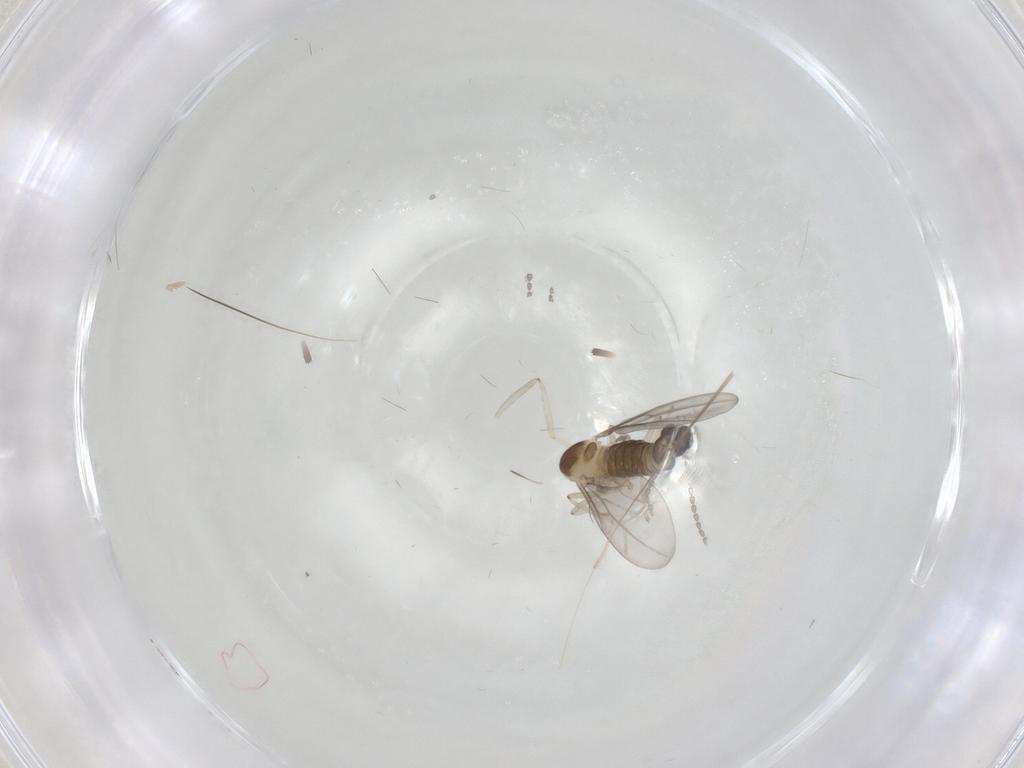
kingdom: Animalia
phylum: Arthropoda
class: Insecta
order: Diptera
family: Cecidomyiidae
